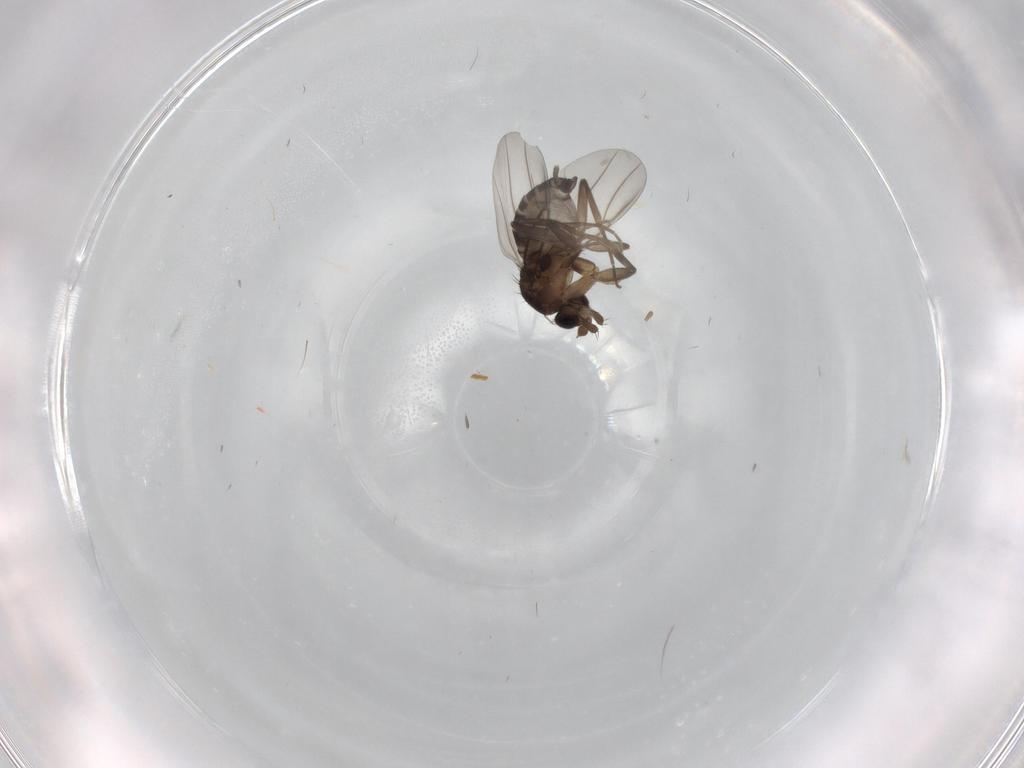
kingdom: Animalia
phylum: Arthropoda
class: Insecta
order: Diptera
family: Phoridae
